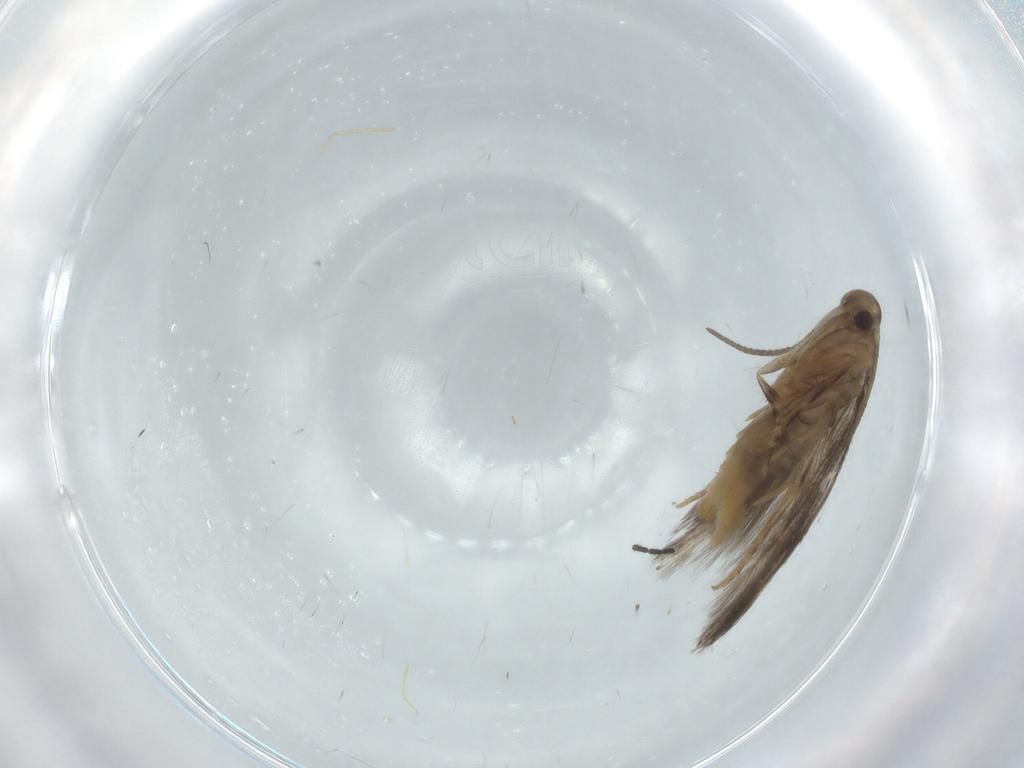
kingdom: Animalia
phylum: Arthropoda
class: Insecta
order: Lepidoptera
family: Elachistidae
